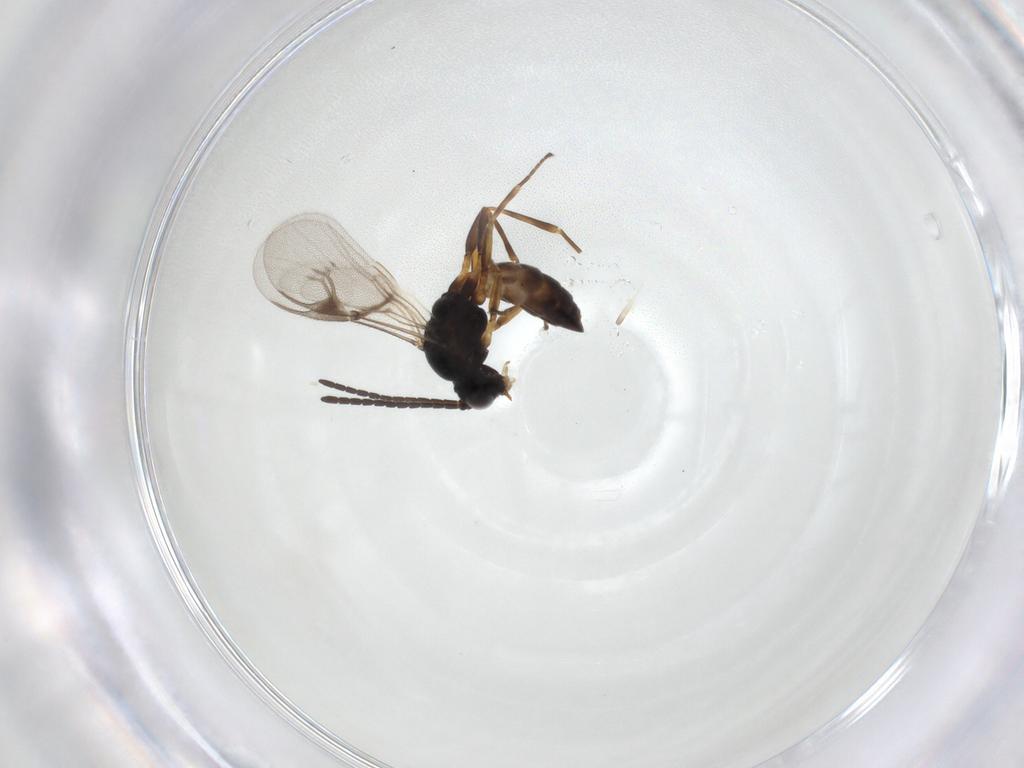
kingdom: Animalia
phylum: Arthropoda
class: Insecta
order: Hymenoptera
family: Braconidae
